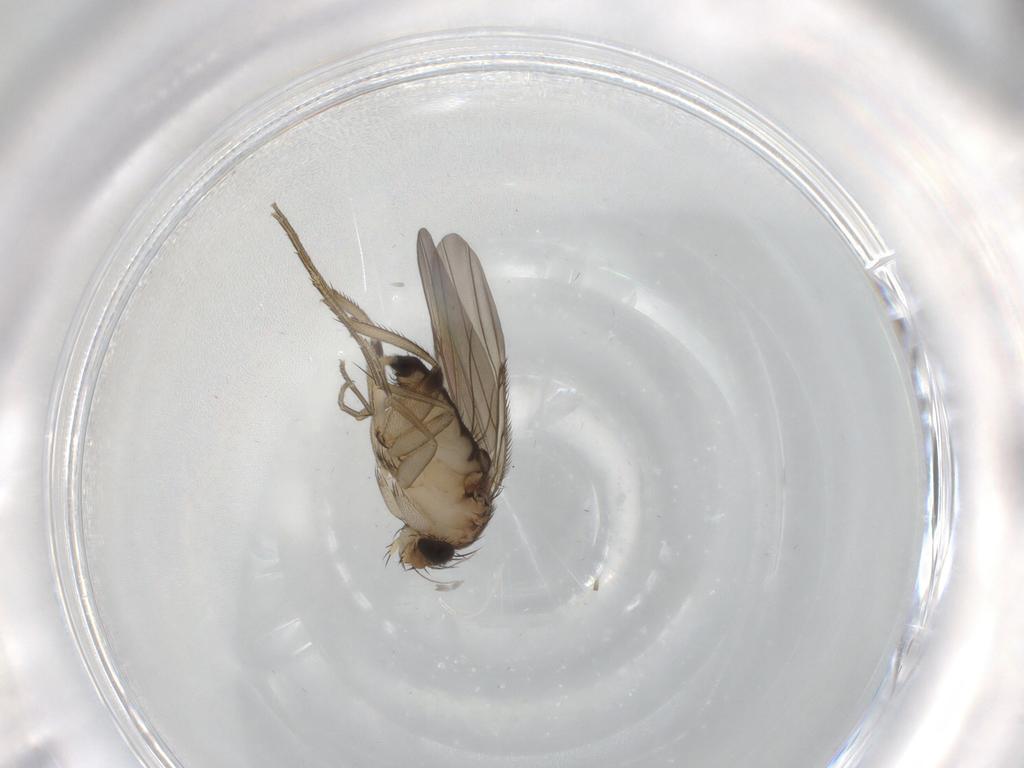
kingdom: Animalia
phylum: Arthropoda
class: Insecta
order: Diptera
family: Phoridae
